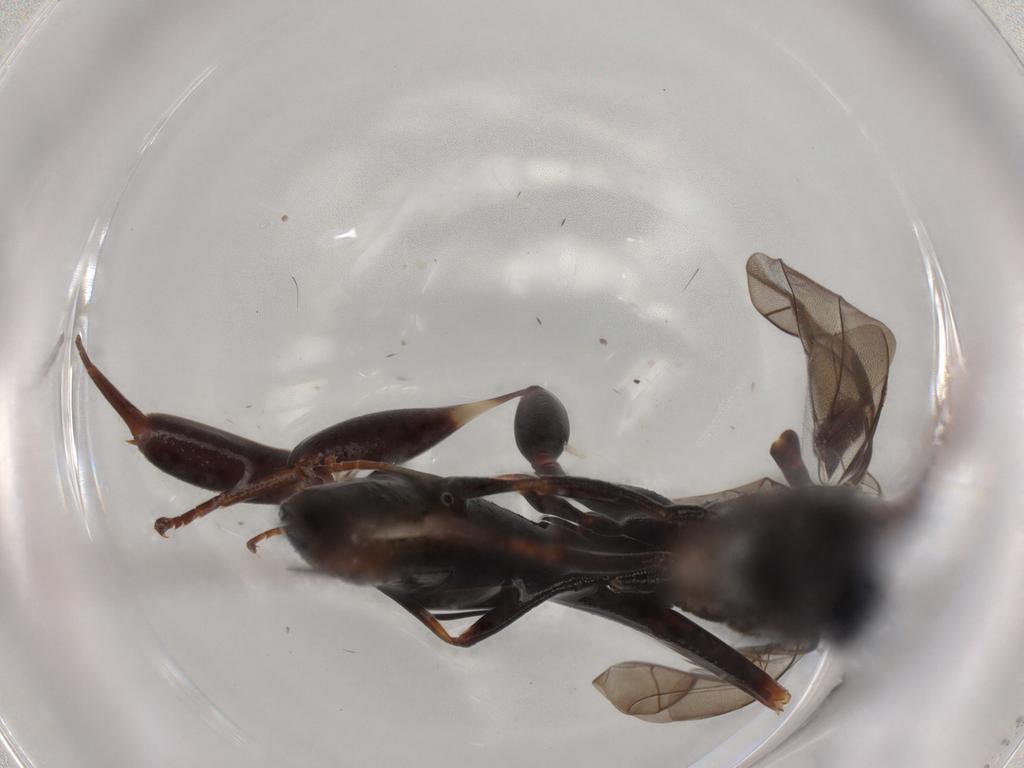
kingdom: Animalia
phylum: Arthropoda
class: Insecta
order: Hymenoptera
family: Gasteruptiidae
